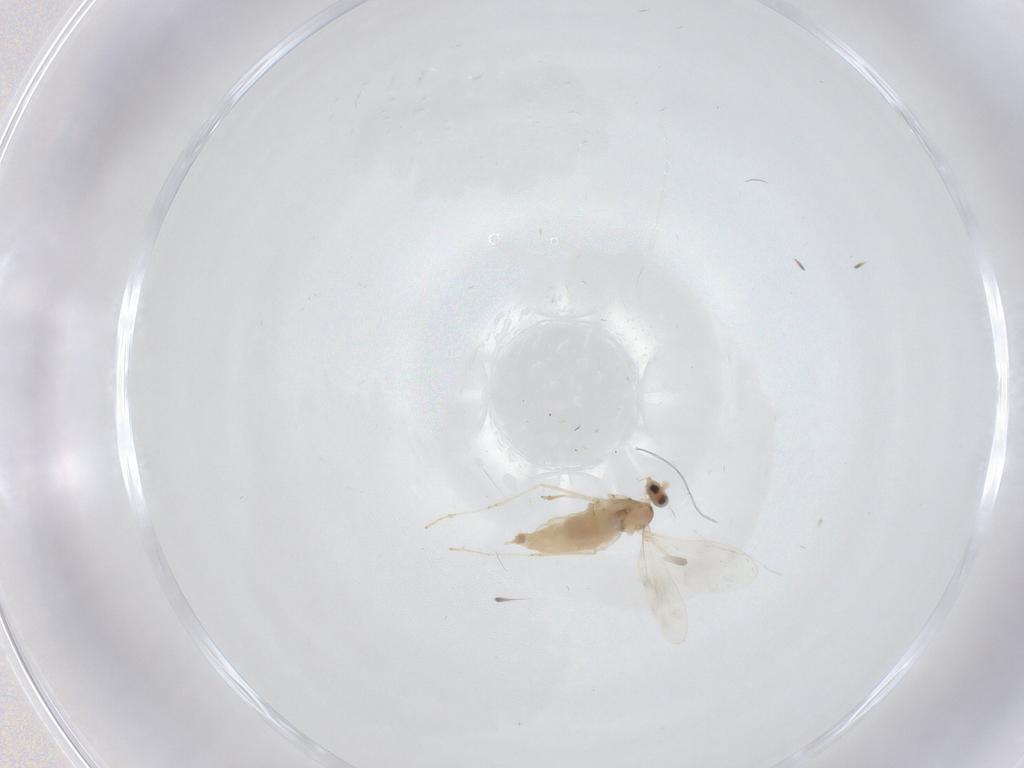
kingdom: Animalia
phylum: Arthropoda
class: Insecta
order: Diptera
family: Cecidomyiidae
